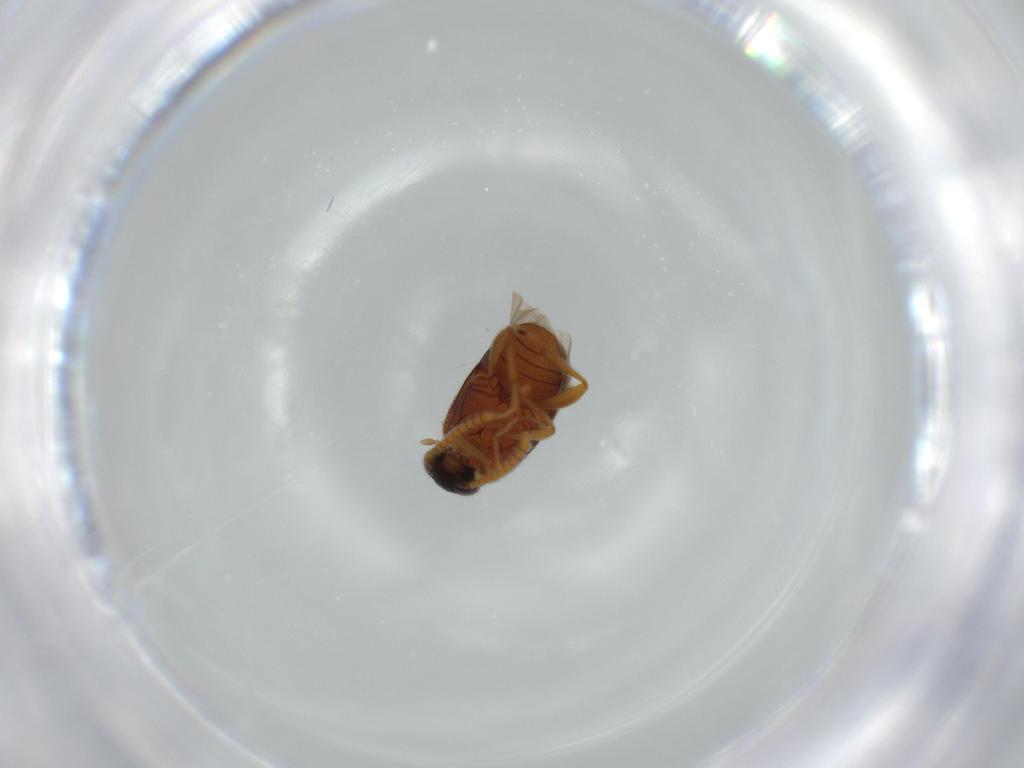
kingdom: Animalia
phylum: Arthropoda
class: Insecta
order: Coleoptera
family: Aderidae
